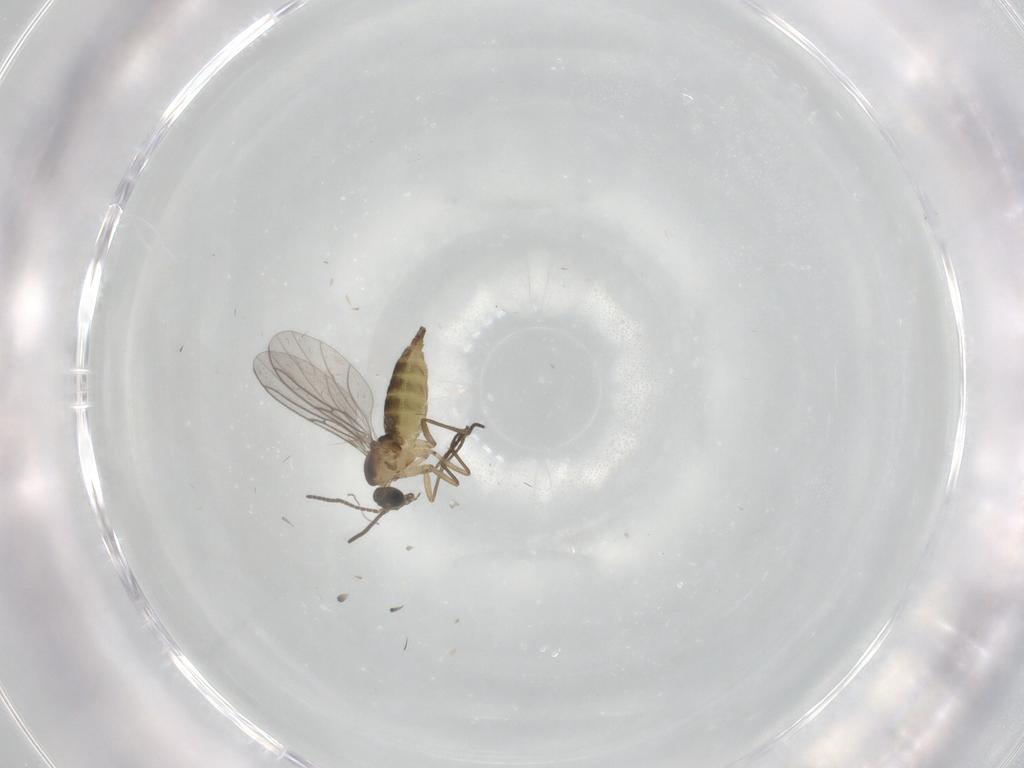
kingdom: Animalia
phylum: Arthropoda
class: Insecta
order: Diptera
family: Sciaridae
